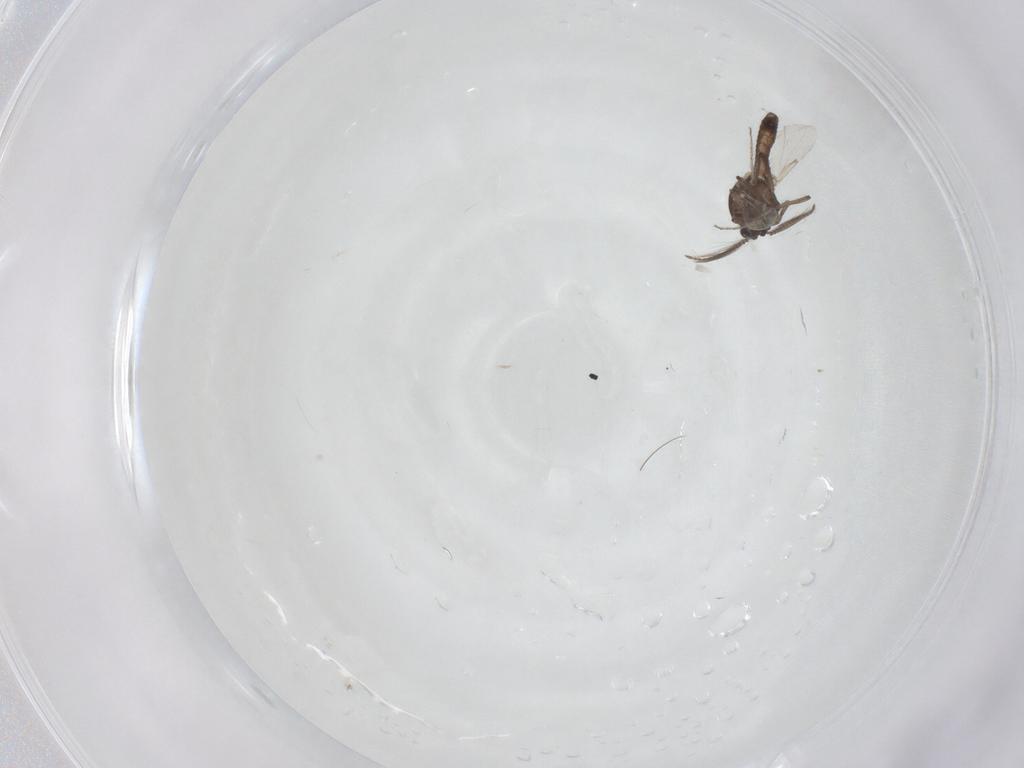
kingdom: Animalia
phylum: Arthropoda
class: Insecta
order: Diptera
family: Ceratopogonidae
